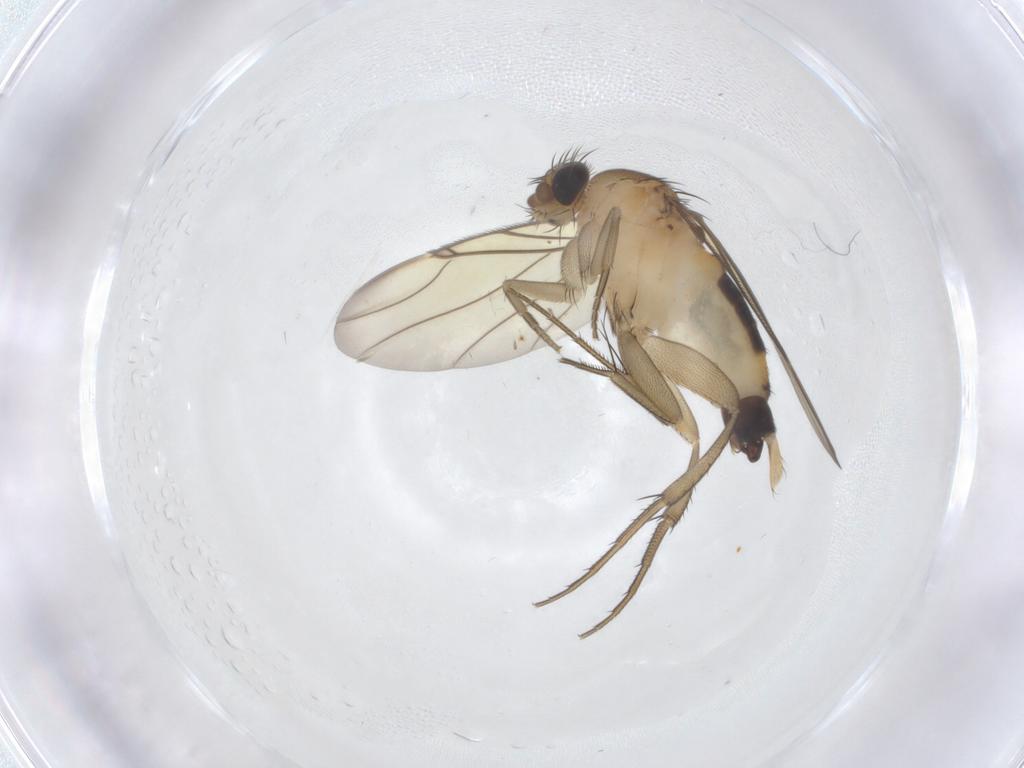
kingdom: Animalia
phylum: Arthropoda
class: Insecta
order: Diptera
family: Phoridae
